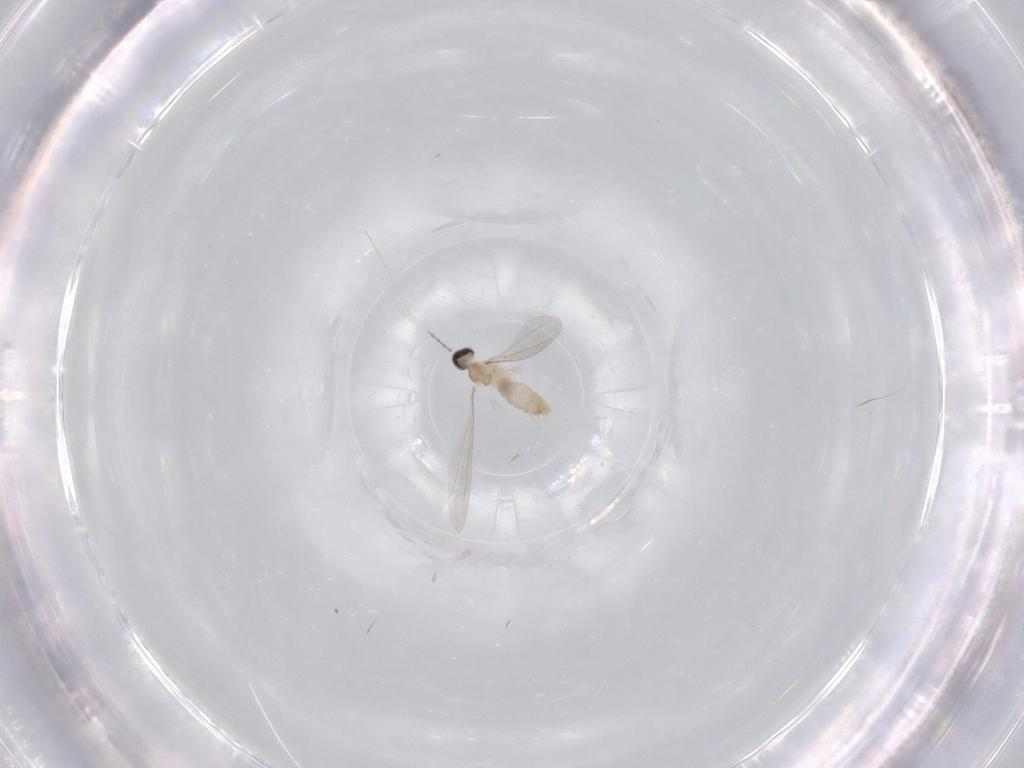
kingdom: Animalia
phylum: Arthropoda
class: Insecta
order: Diptera
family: Cecidomyiidae
